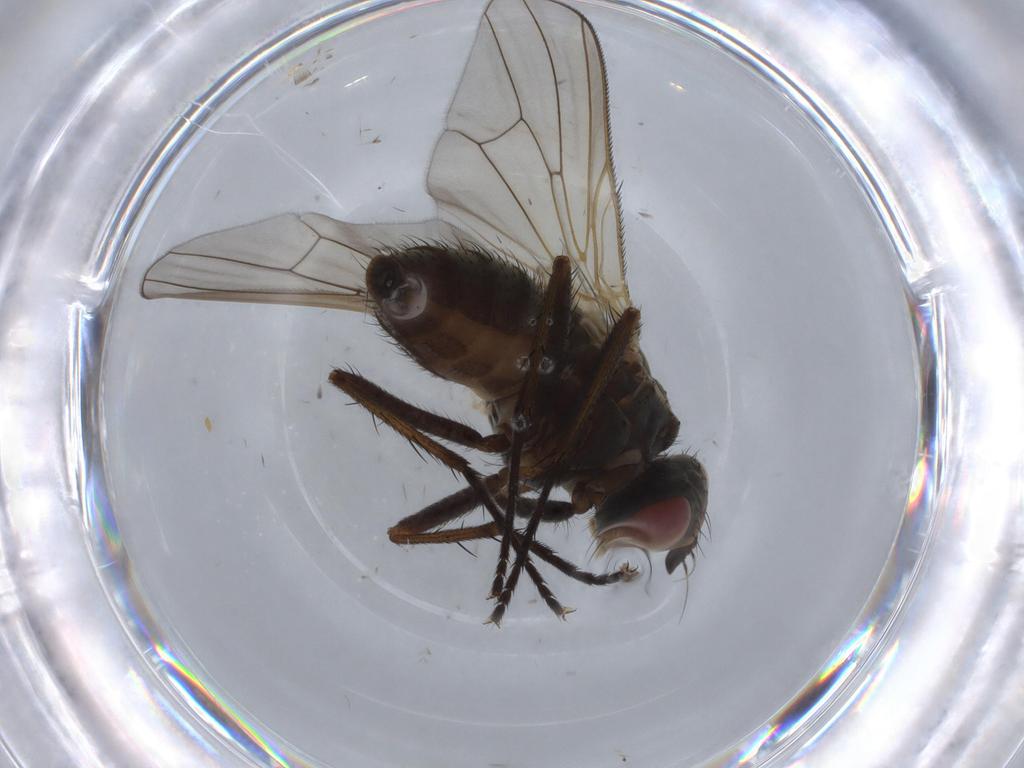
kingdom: Animalia
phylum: Arthropoda
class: Insecta
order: Diptera
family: Anthomyiidae
